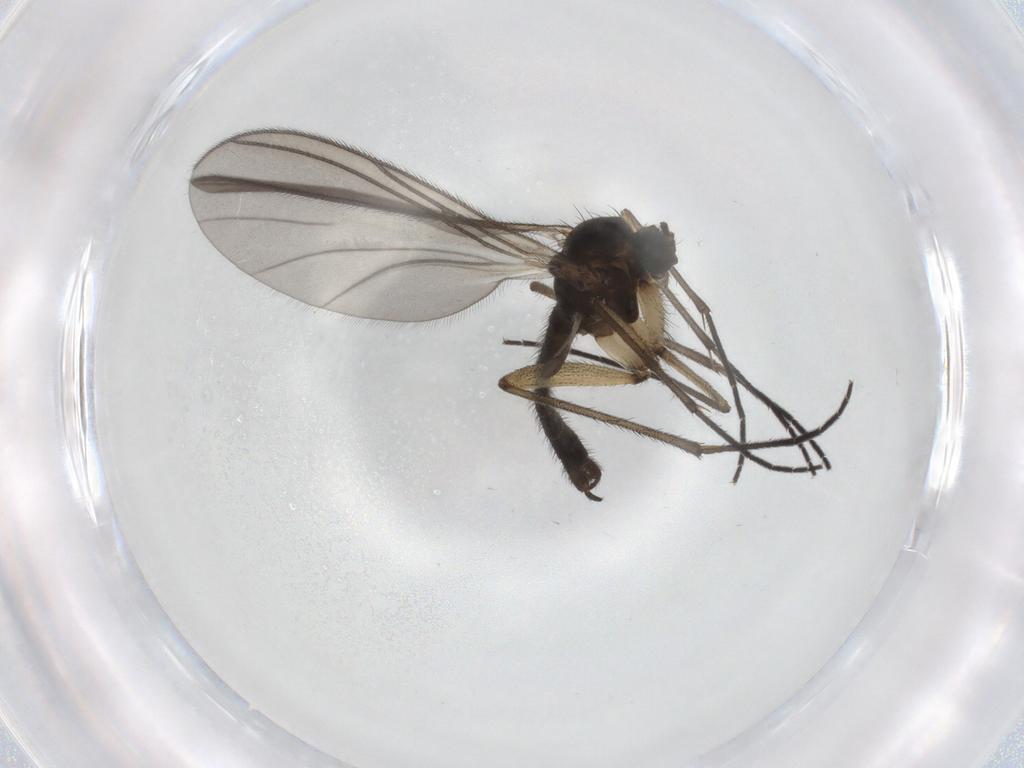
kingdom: Animalia
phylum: Arthropoda
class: Insecta
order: Diptera
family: Sciaridae
